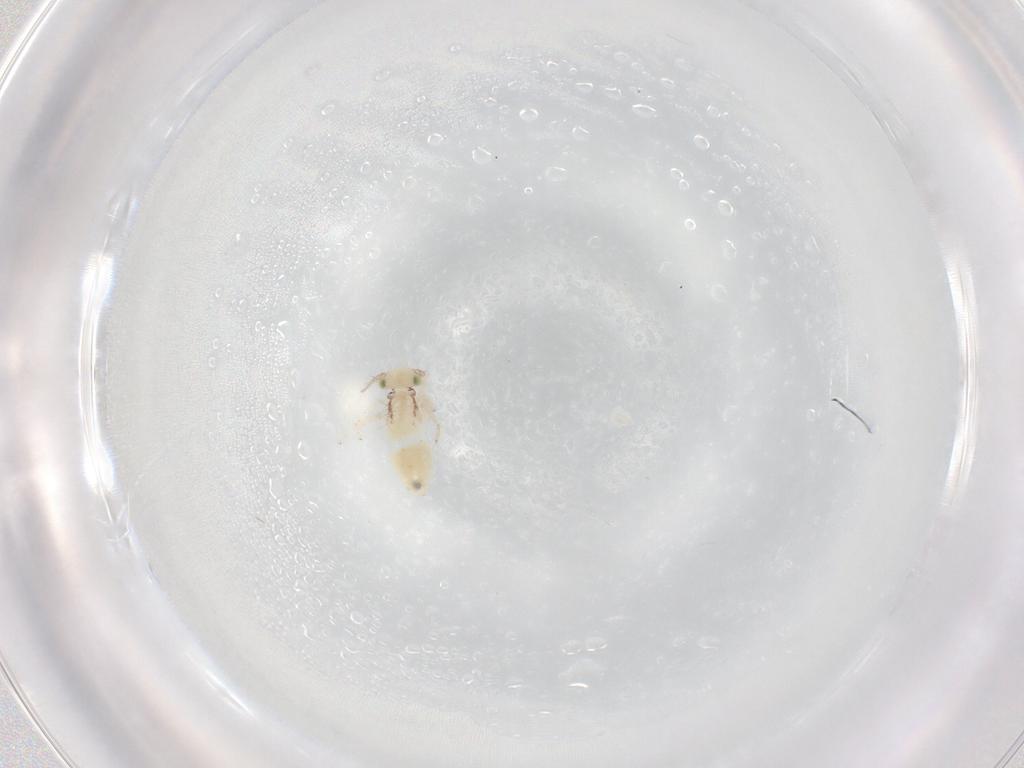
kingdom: Animalia
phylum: Arthropoda
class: Insecta
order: Psocodea
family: Lepidopsocidae
